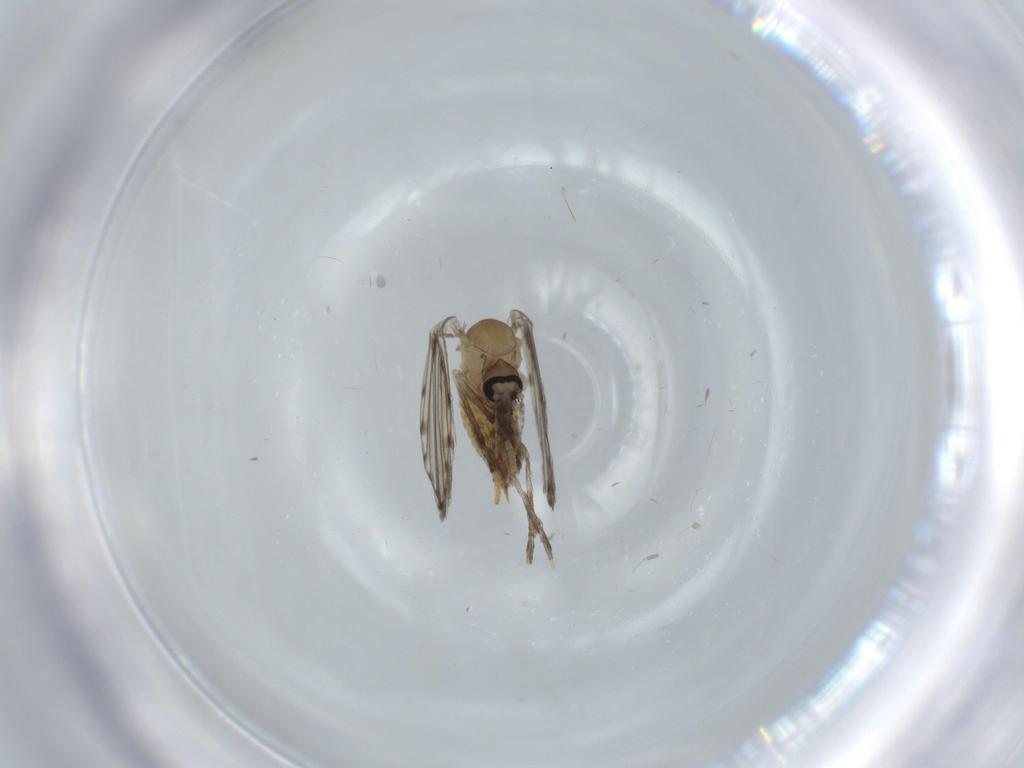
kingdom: Animalia
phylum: Arthropoda
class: Insecta
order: Diptera
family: Psychodidae
